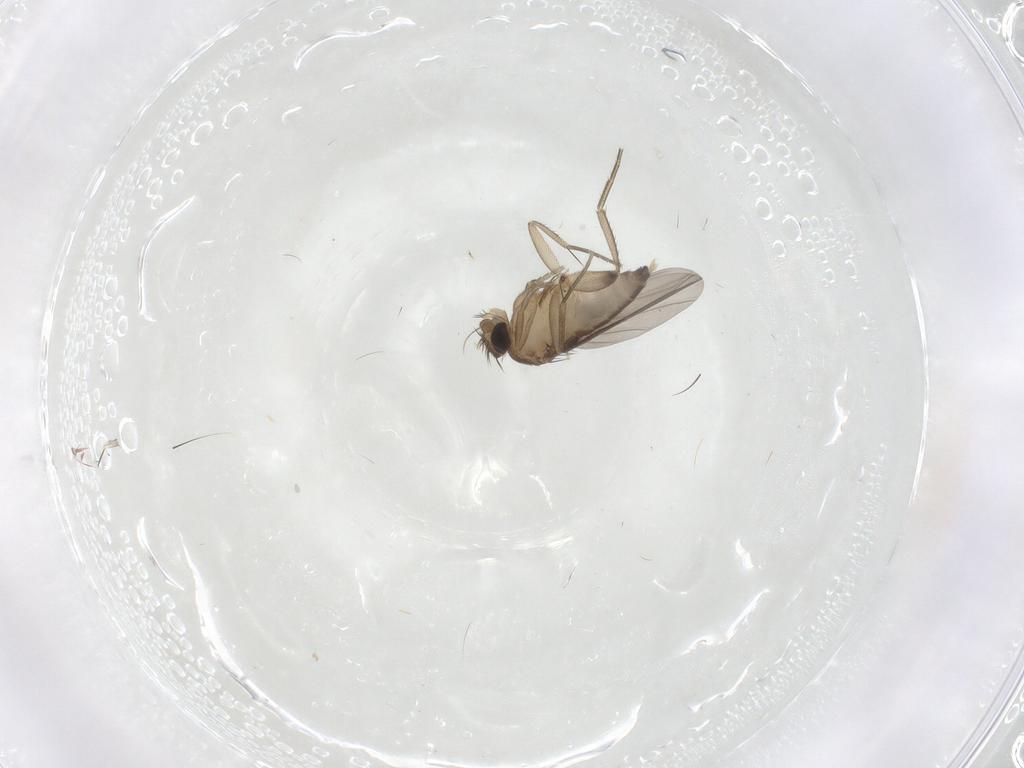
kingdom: Animalia
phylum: Arthropoda
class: Insecta
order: Diptera
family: Phoridae
